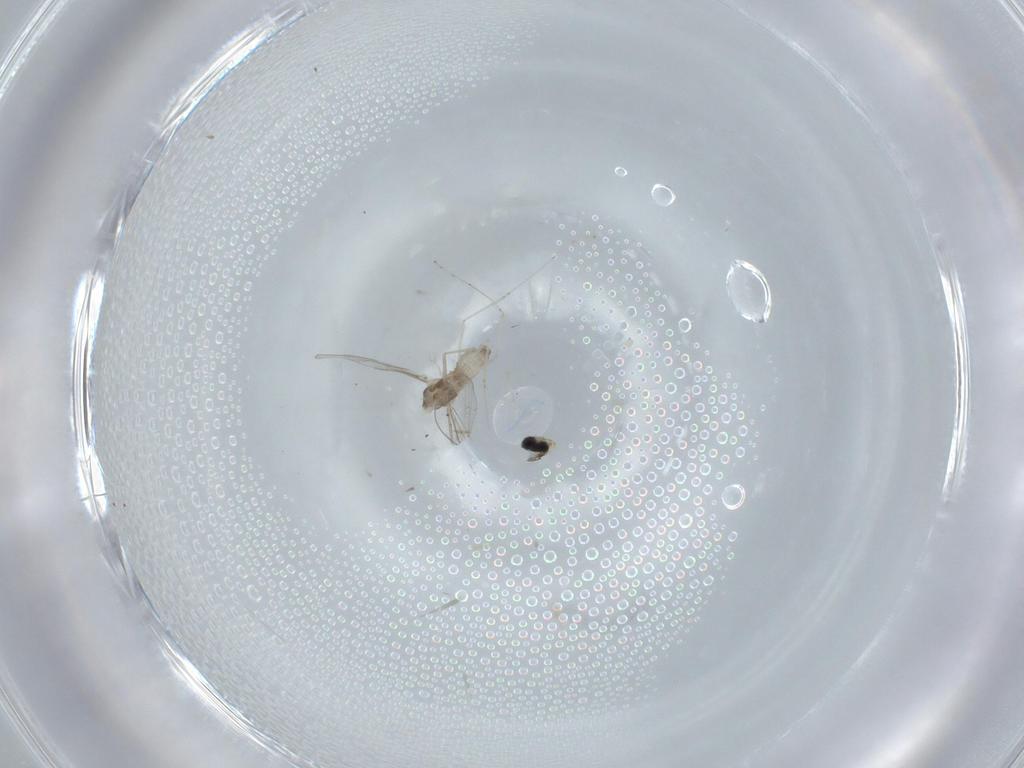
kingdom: Animalia
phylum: Arthropoda
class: Insecta
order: Diptera
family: Cecidomyiidae
